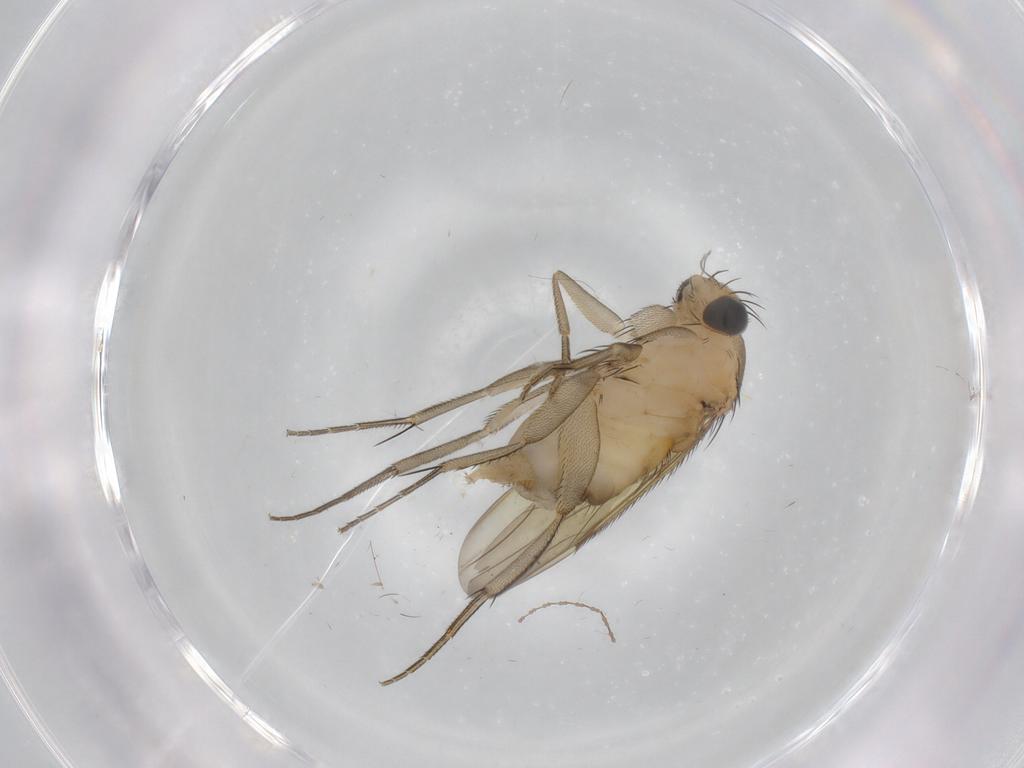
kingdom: Animalia
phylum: Arthropoda
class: Insecta
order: Diptera
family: Phoridae
